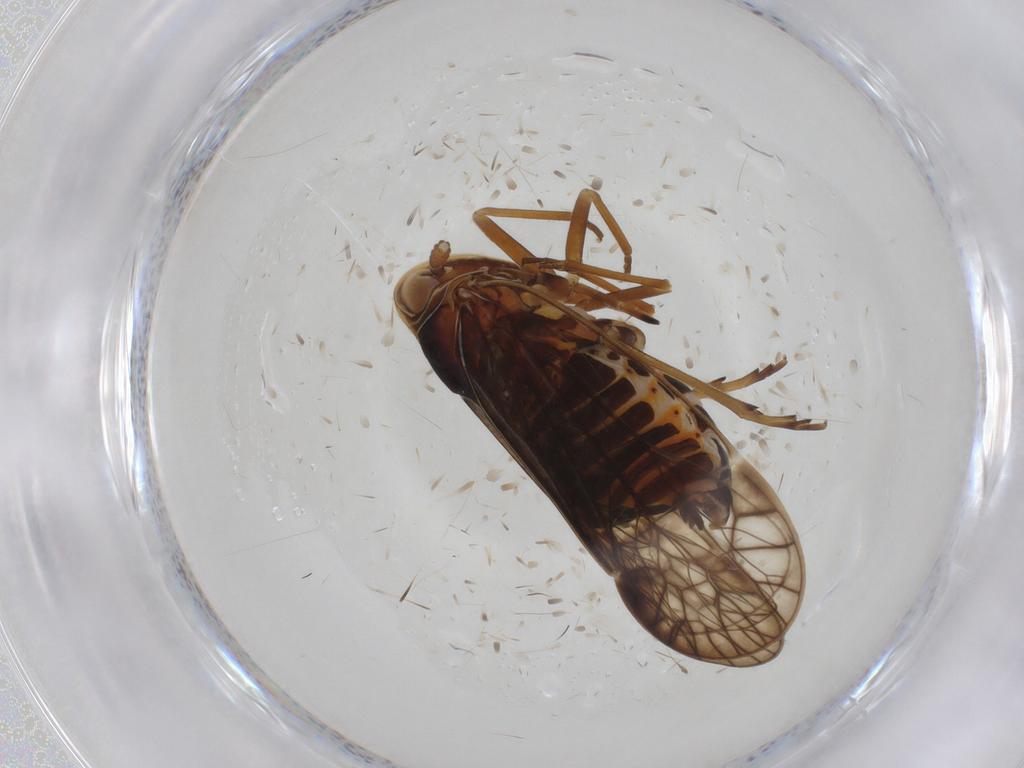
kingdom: Animalia
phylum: Arthropoda
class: Insecta
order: Hemiptera
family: Kinnaridae
